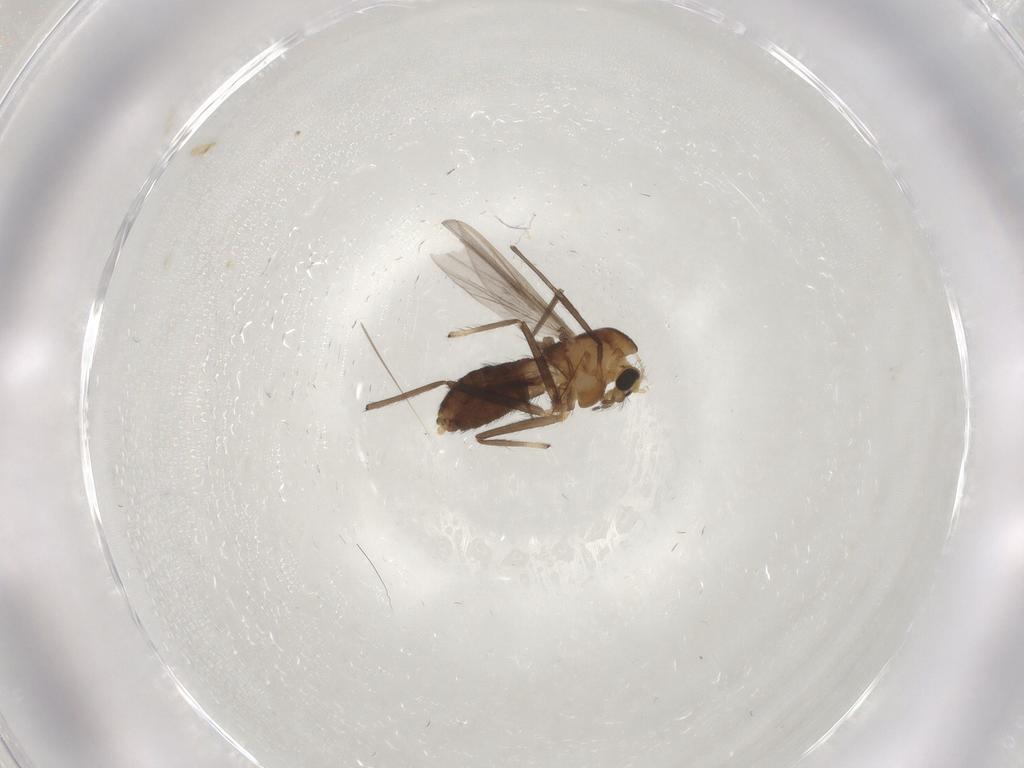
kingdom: Animalia
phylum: Arthropoda
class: Insecta
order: Diptera
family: Chironomidae
